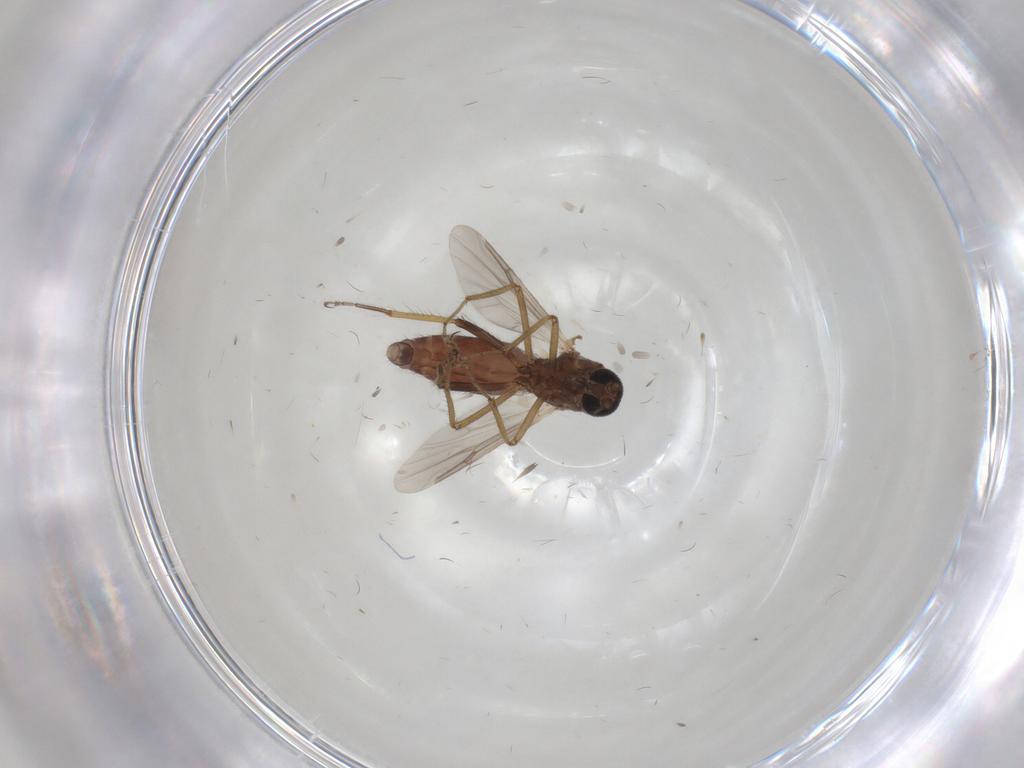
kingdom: Animalia
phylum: Arthropoda
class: Insecta
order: Diptera
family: Ceratopogonidae
